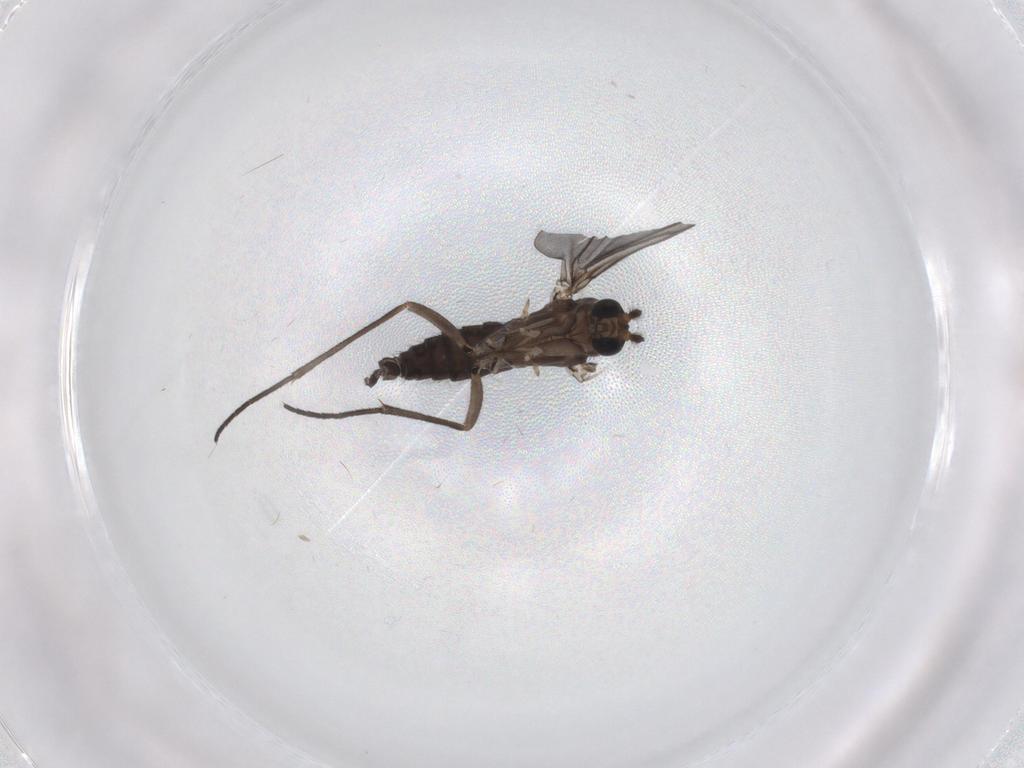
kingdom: Animalia
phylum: Arthropoda
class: Insecta
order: Diptera
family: Sciaridae
